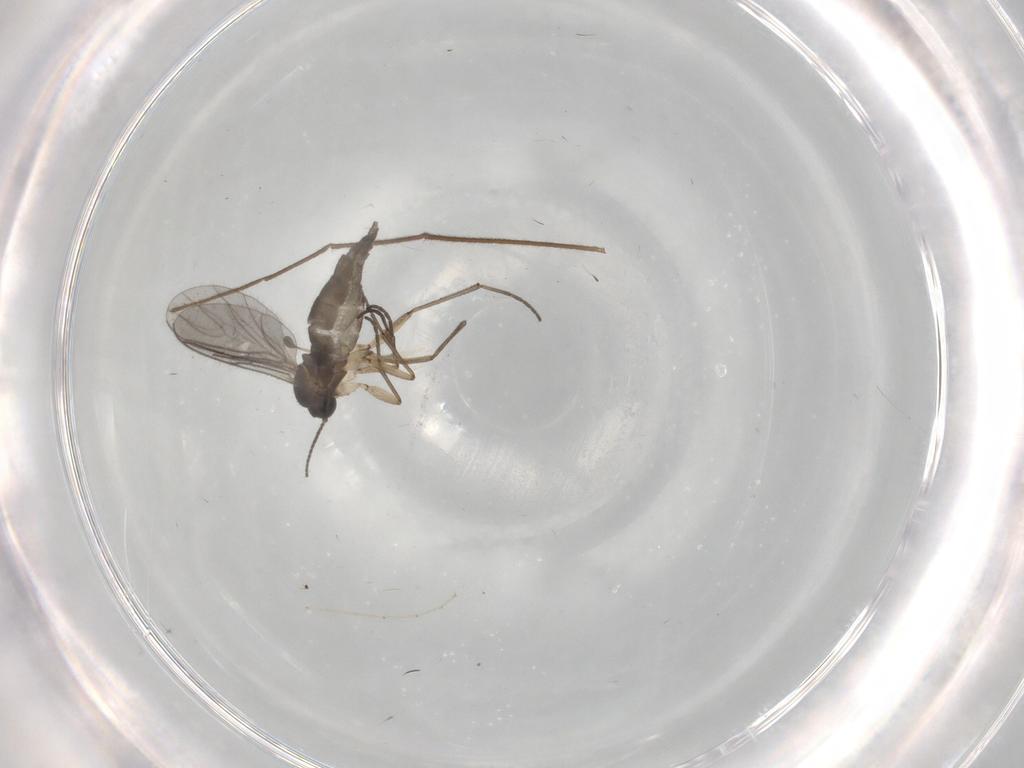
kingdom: Animalia
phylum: Arthropoda
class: Insecta
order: Diptera
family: Sciaridae
